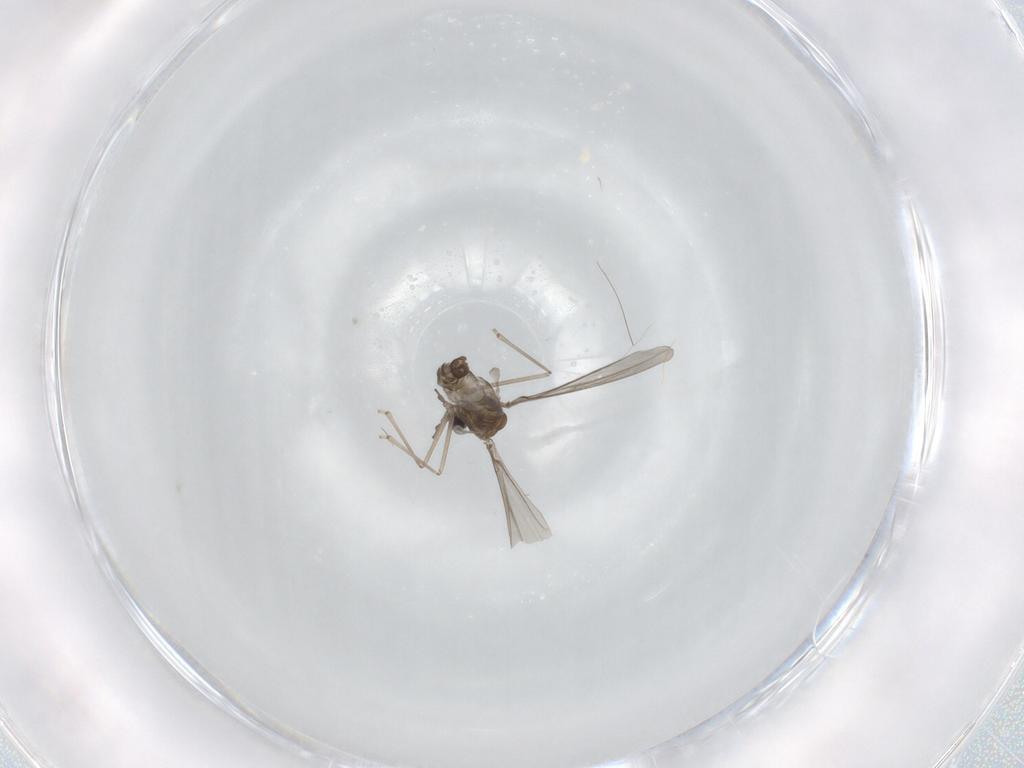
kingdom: Animalia
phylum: Arthropoda
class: Insecta
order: Diptera
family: Phoridae
